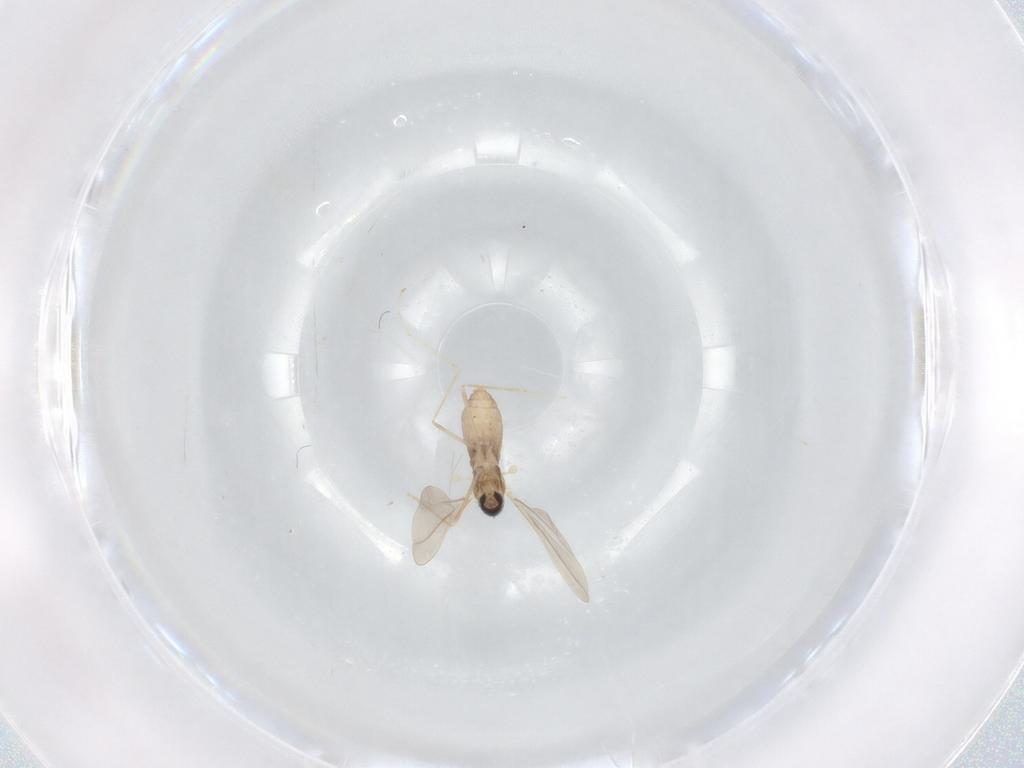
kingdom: Animalia
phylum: Arthropoda
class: Insecta
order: Diptera
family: Cecidomyiidae
